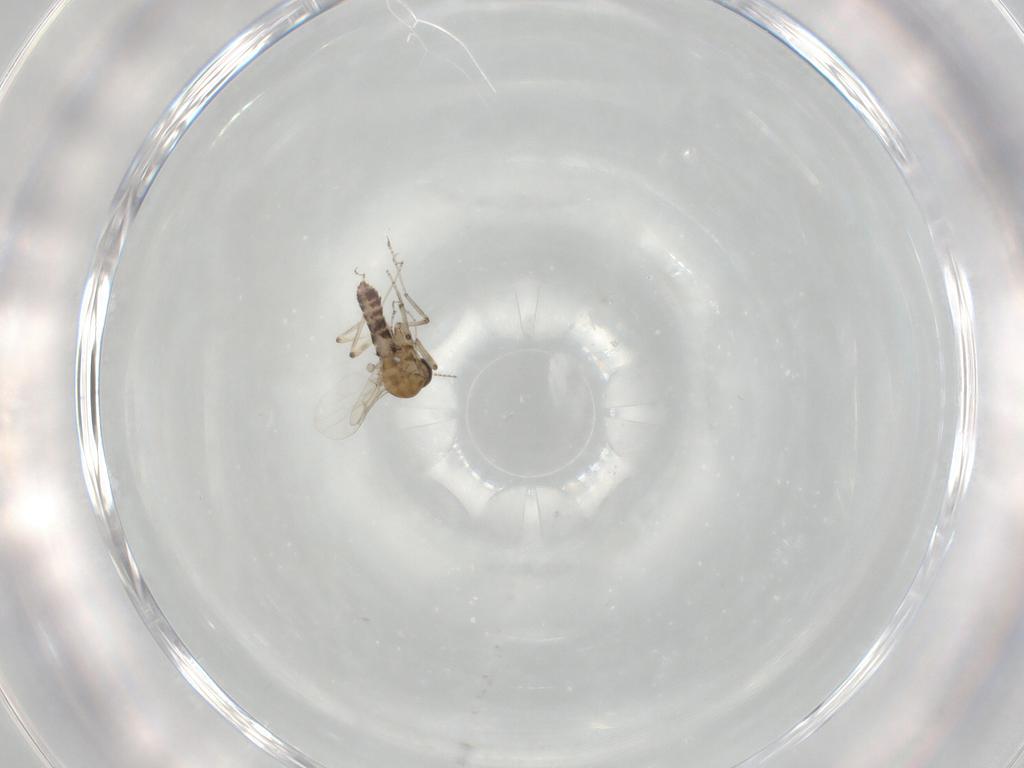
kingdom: Animalia
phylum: Arthropoda
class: Insecta
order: Diptera
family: Ceratopogonidae
